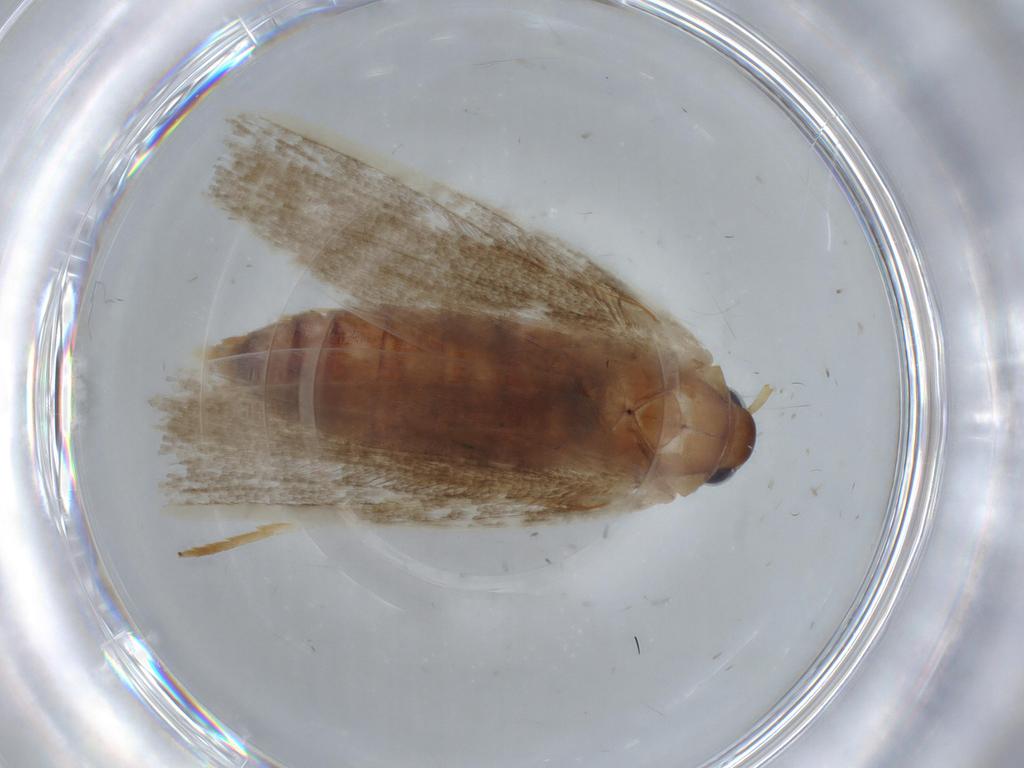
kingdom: Animalia
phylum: Arthropoda
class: Insecta
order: Lepidoptera
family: Blastobasidae
